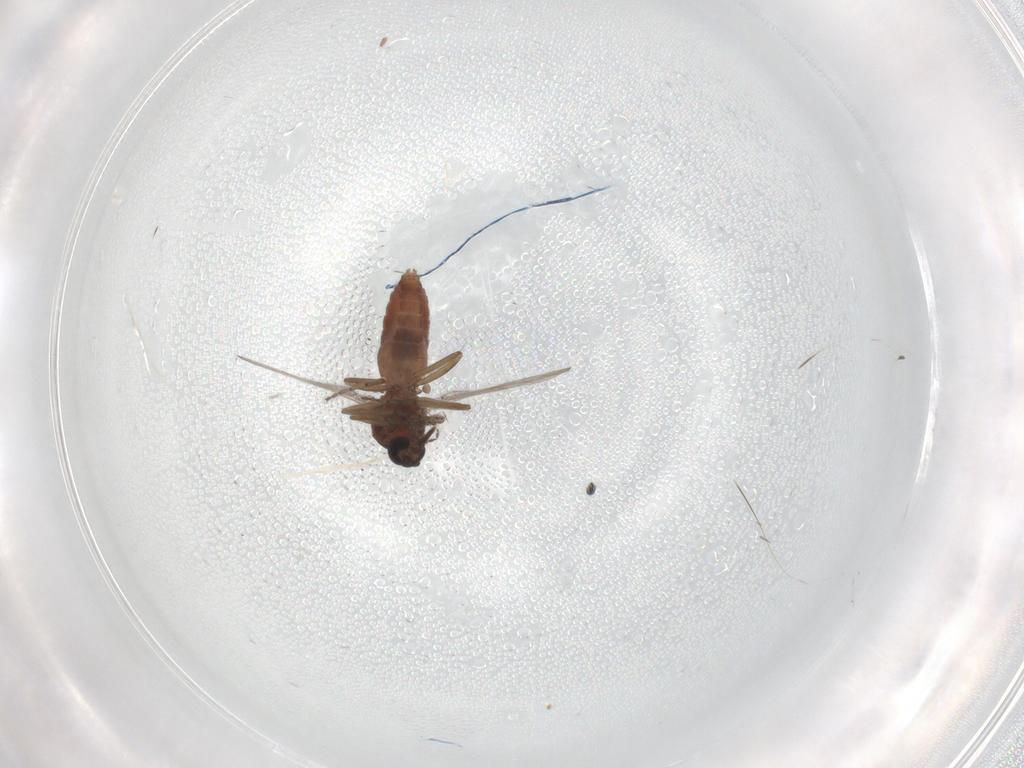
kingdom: Animalia
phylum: Arthropoda
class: Insecta
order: Diptera
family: Ceratopogonidae
